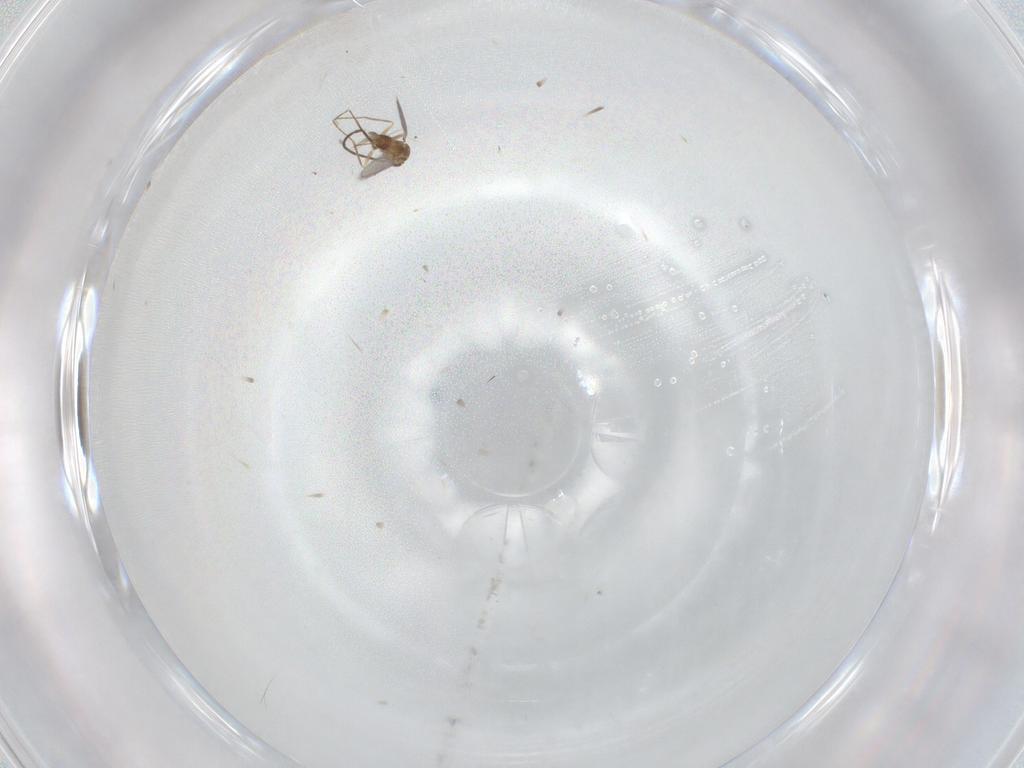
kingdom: Animalia
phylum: Arthropoda
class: Insecta
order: Hymenoptera
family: Mymaridae
